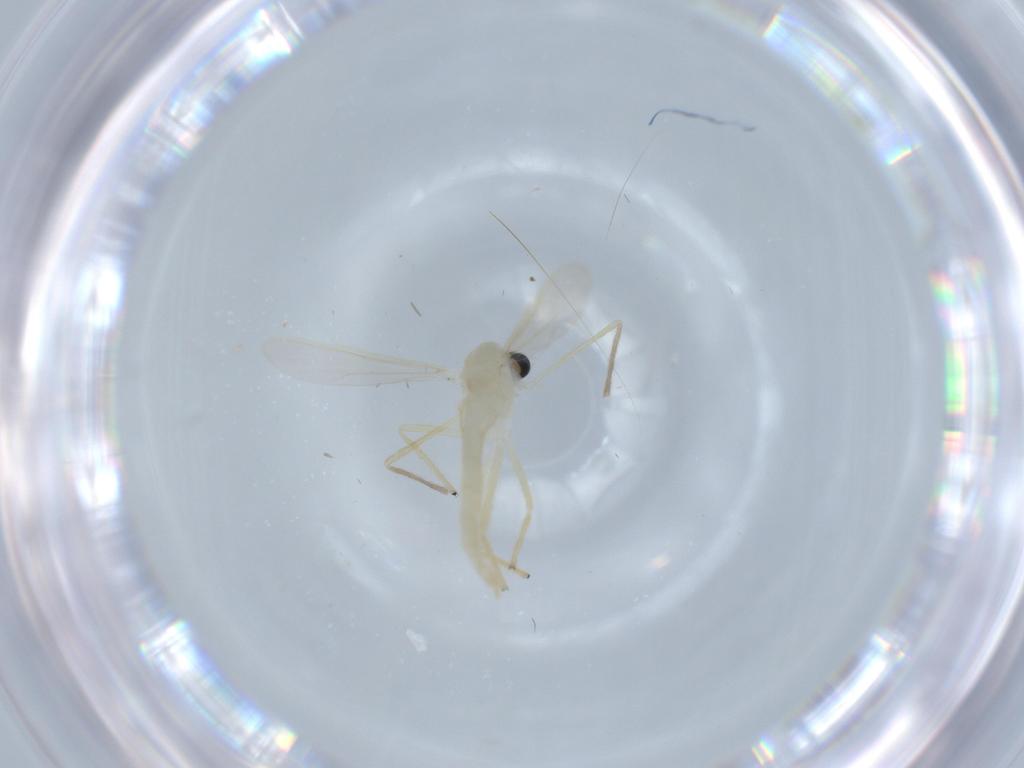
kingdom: Animalia
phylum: Arthropoda
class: Insecta
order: Diptera
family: Chironomidae
